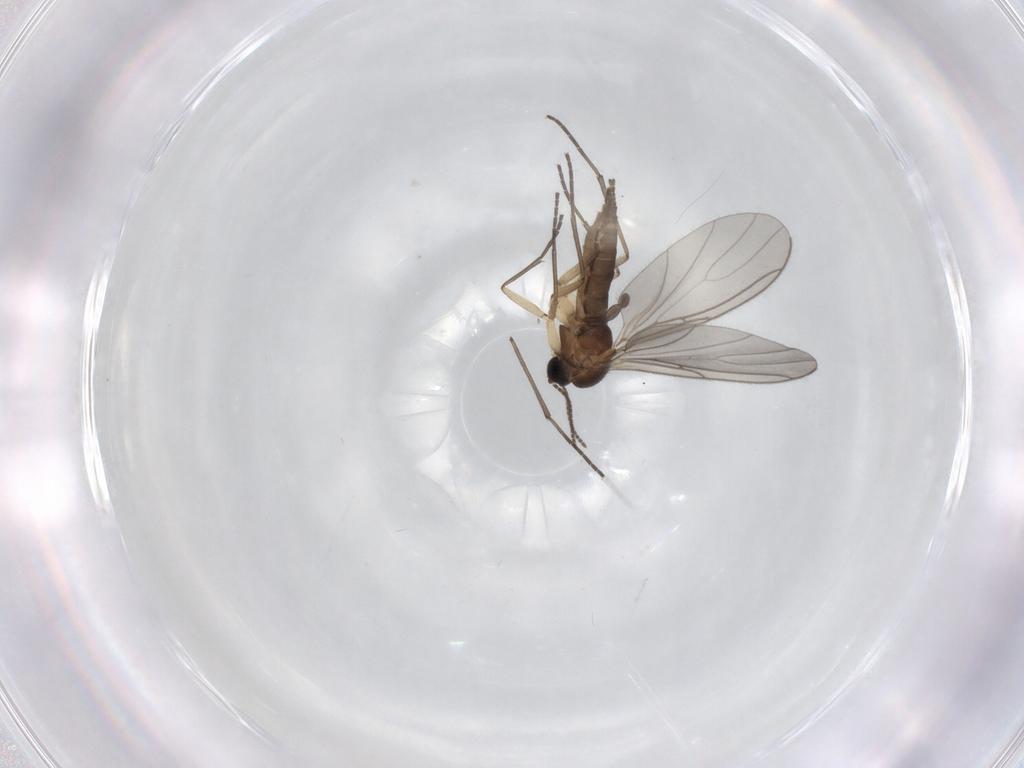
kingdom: Animalia
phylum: Arthropoda
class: Insecta
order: Diptera
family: Sciaridae
